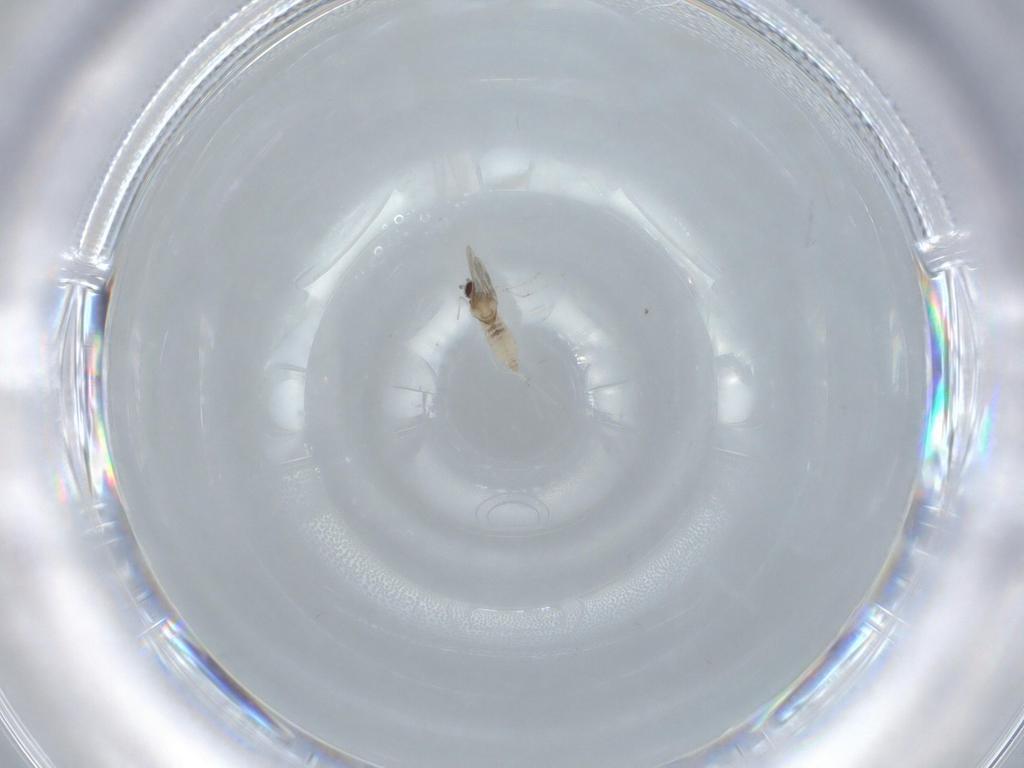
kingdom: Animalia
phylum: Arthropoda
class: Insecta
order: Diptera
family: Cecidomyiidae
